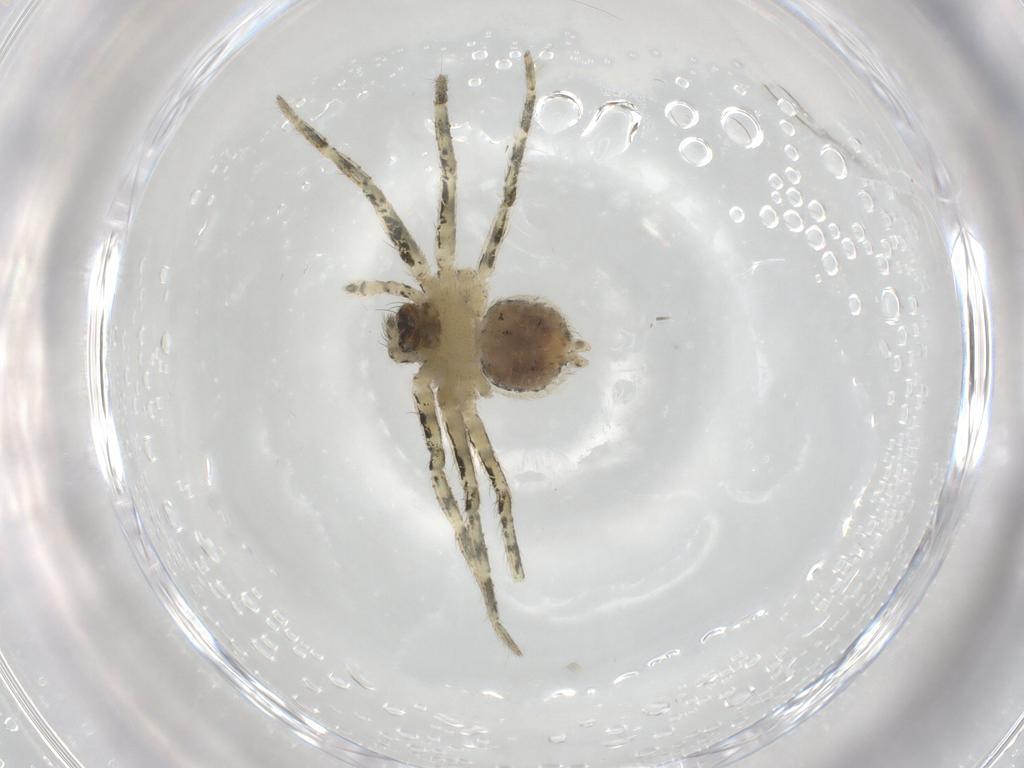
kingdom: Animalia
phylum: Arthropoda
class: Arachnida
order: Araneae
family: Selenopidae
